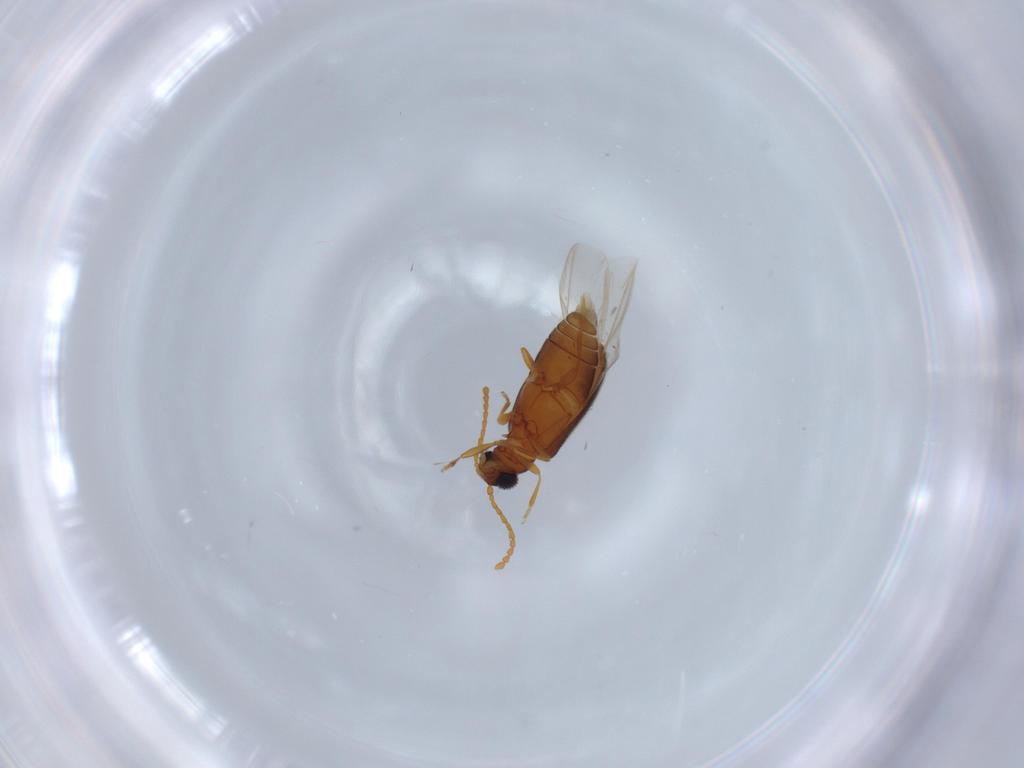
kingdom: Animalia
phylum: Arthropoda
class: Insecta
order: Coleoptera
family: Aderidae
